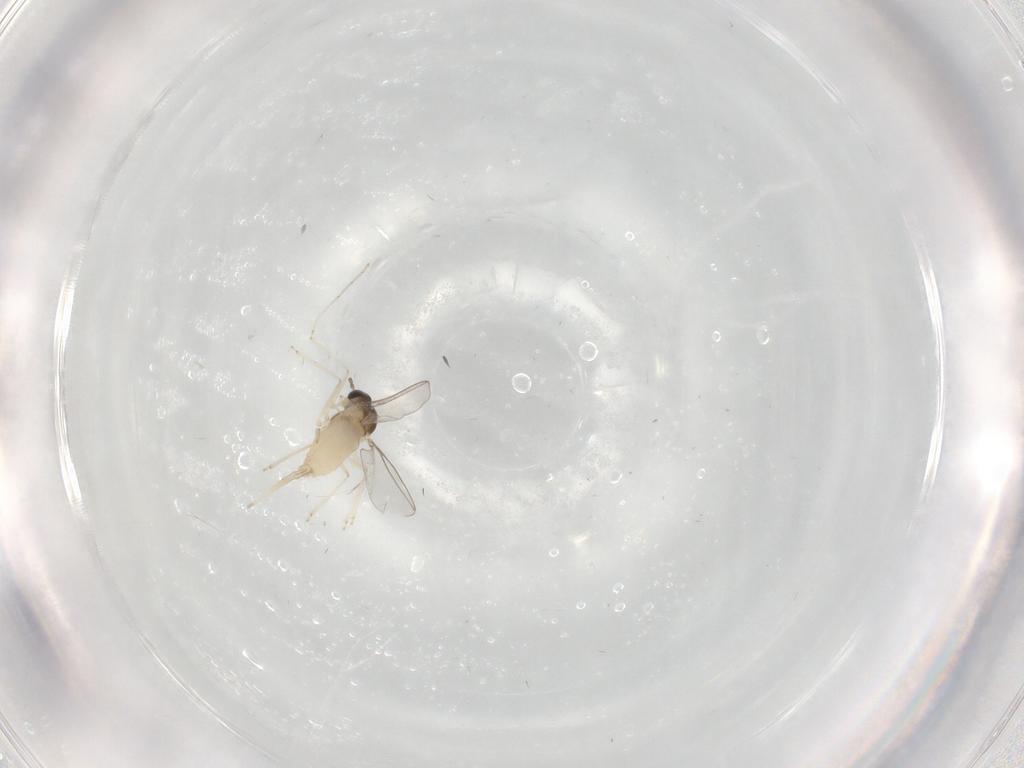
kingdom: Animalia
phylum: Arthropoda
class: Insecta
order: Diptera
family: Cecidomyiidae
